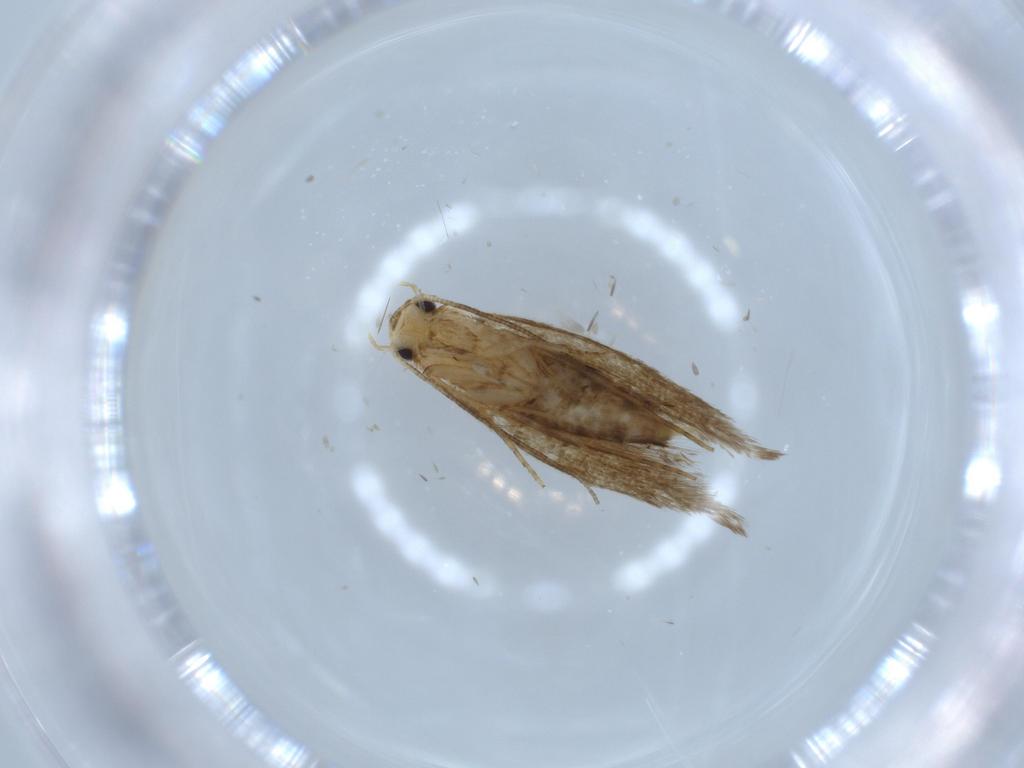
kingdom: Animalia
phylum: Arthropoda
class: Insecta
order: Lepidoptera
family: Tineidae
